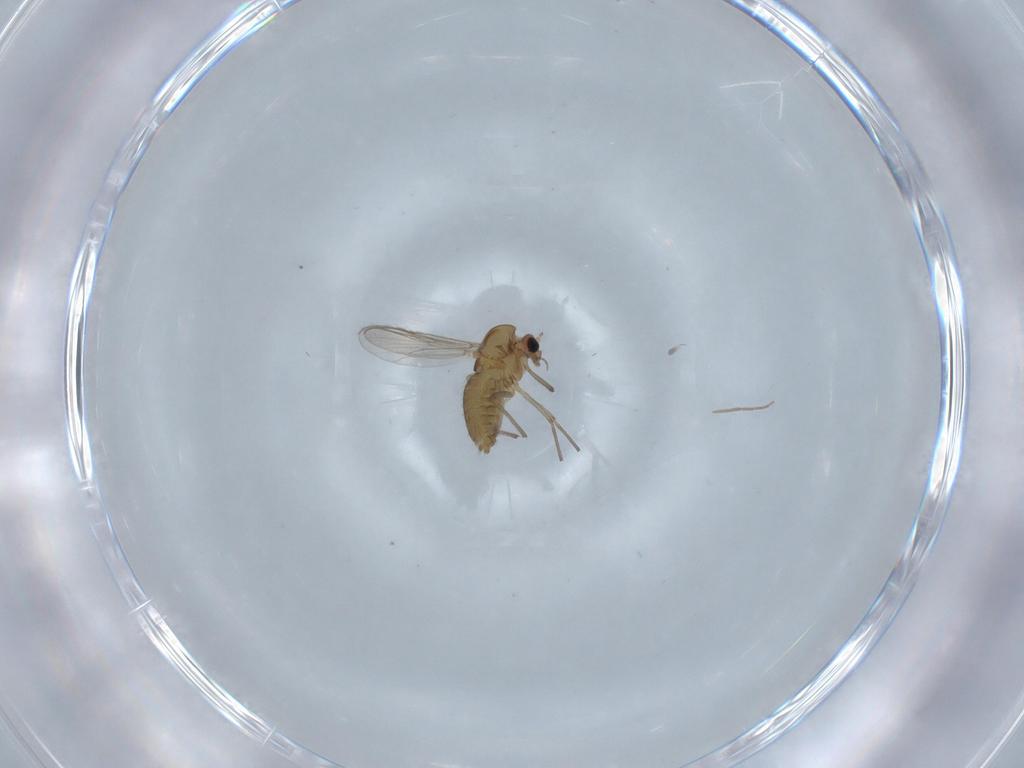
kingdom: Animalia
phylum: Arthropoda
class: Insecta
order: Diptera
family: Chironomidae
